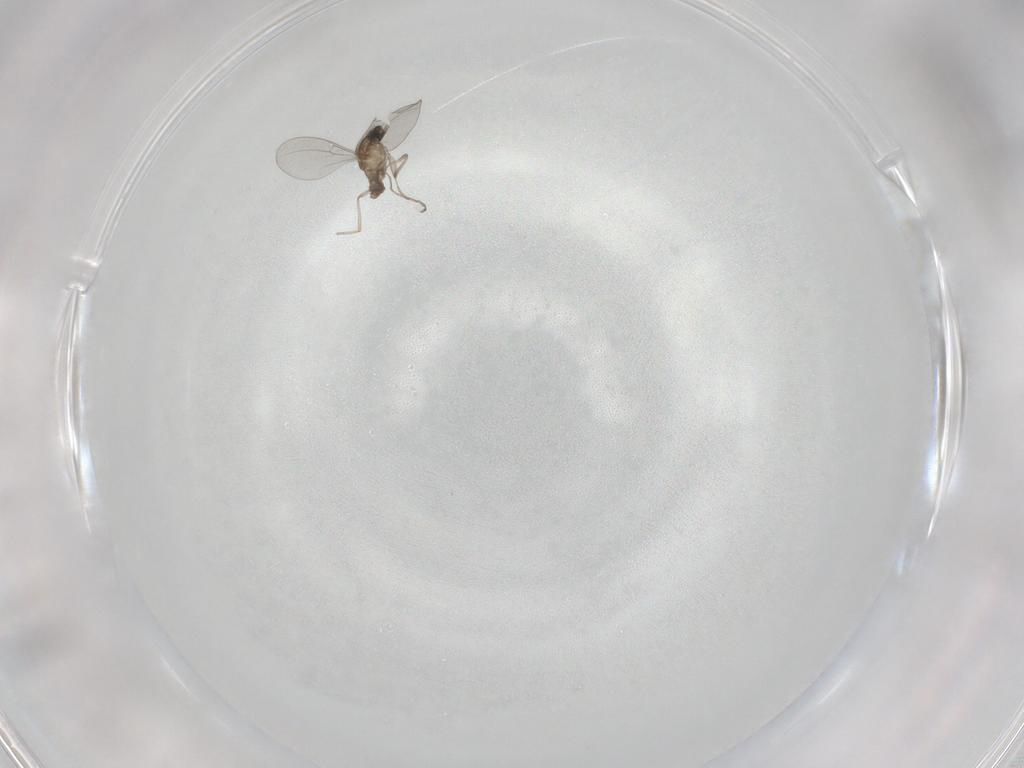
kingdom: Animalia
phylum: Arthropoda
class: Insecta
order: Diptera
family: Cecidomyiidae
